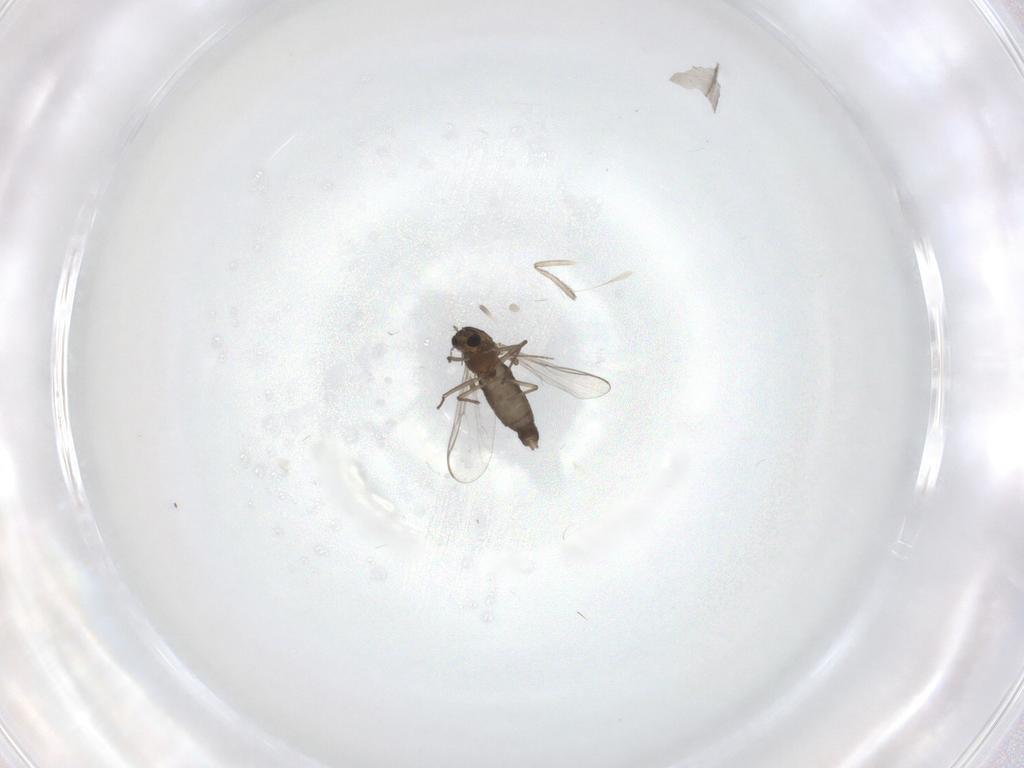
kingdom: Animalia
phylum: Arthropoda
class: Insecta
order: Diptera
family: Chironomidae
